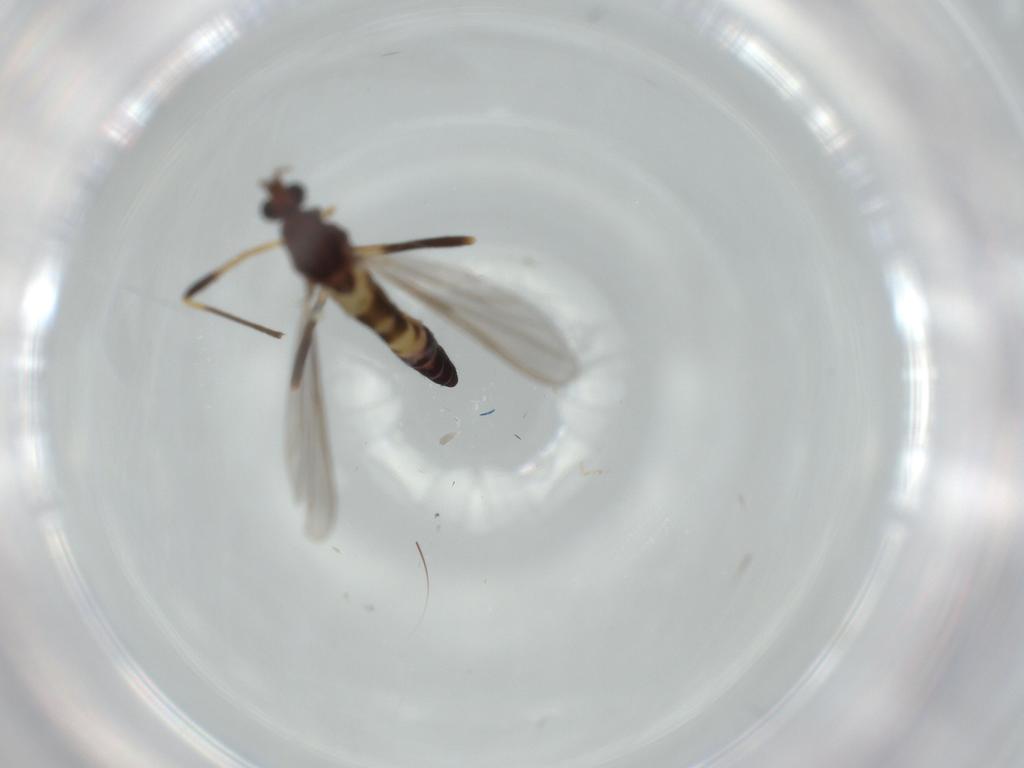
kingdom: Animalia
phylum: Arthropoda
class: Insecta
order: Diptera
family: Chironomidae
